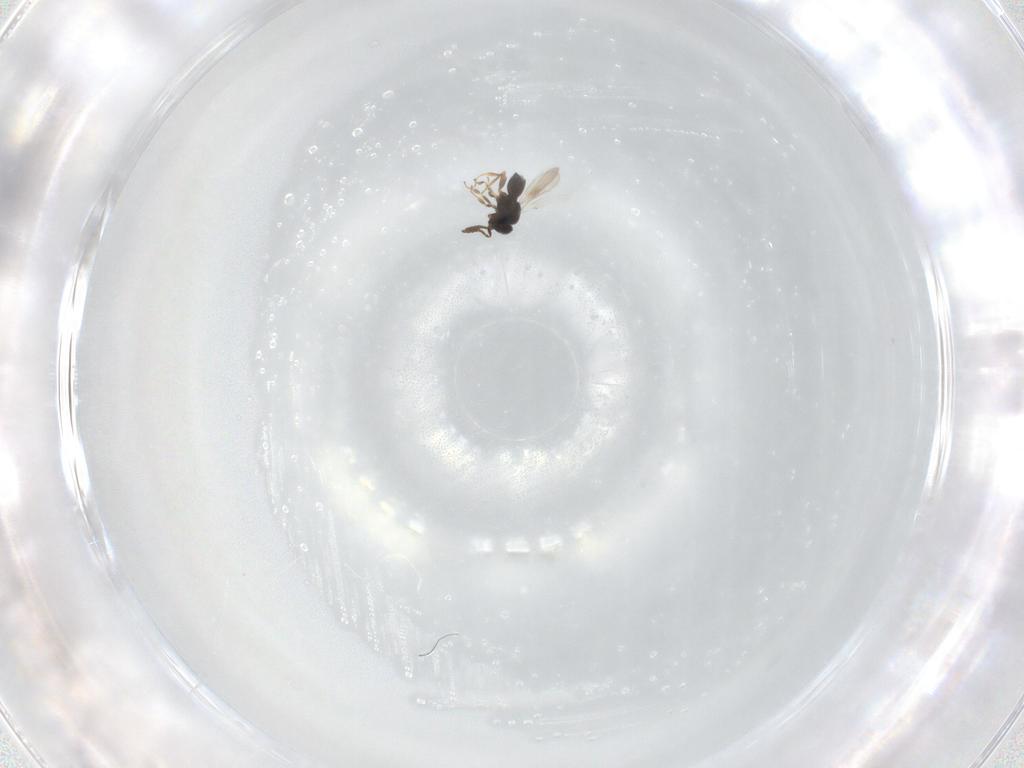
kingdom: Animalia
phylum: Arthropoda
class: Insecta
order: Hymenoptera
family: Scelionidae
